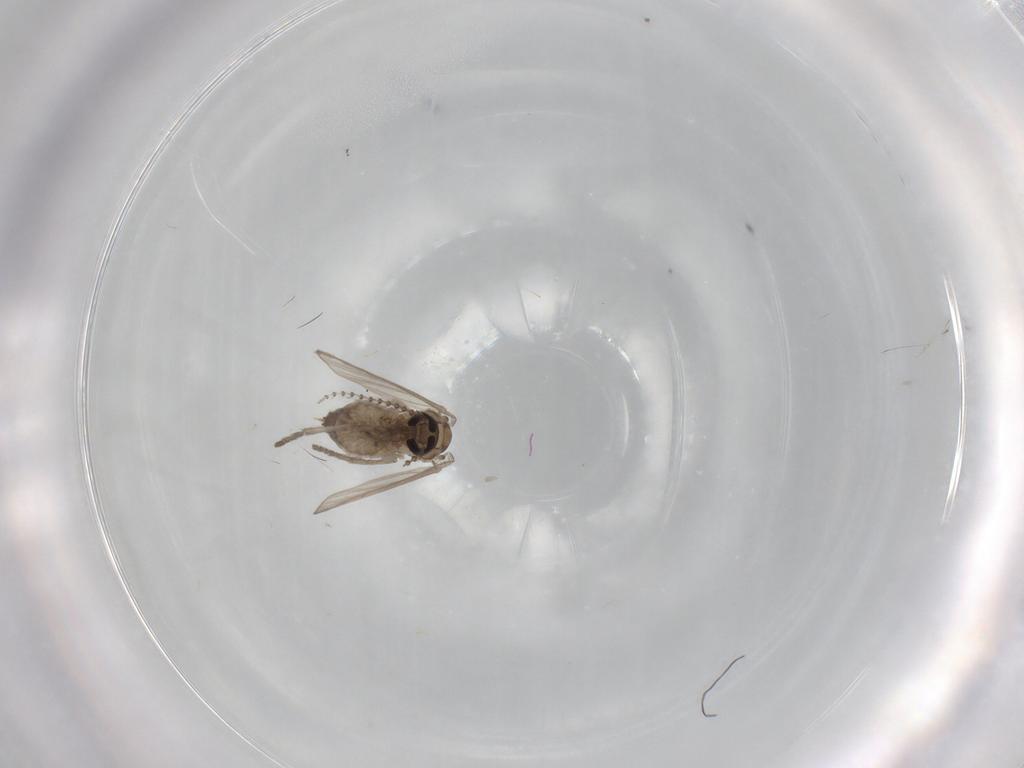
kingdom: Animalia
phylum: Arthropoda
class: Insecta
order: Diptera
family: Psychodidae
